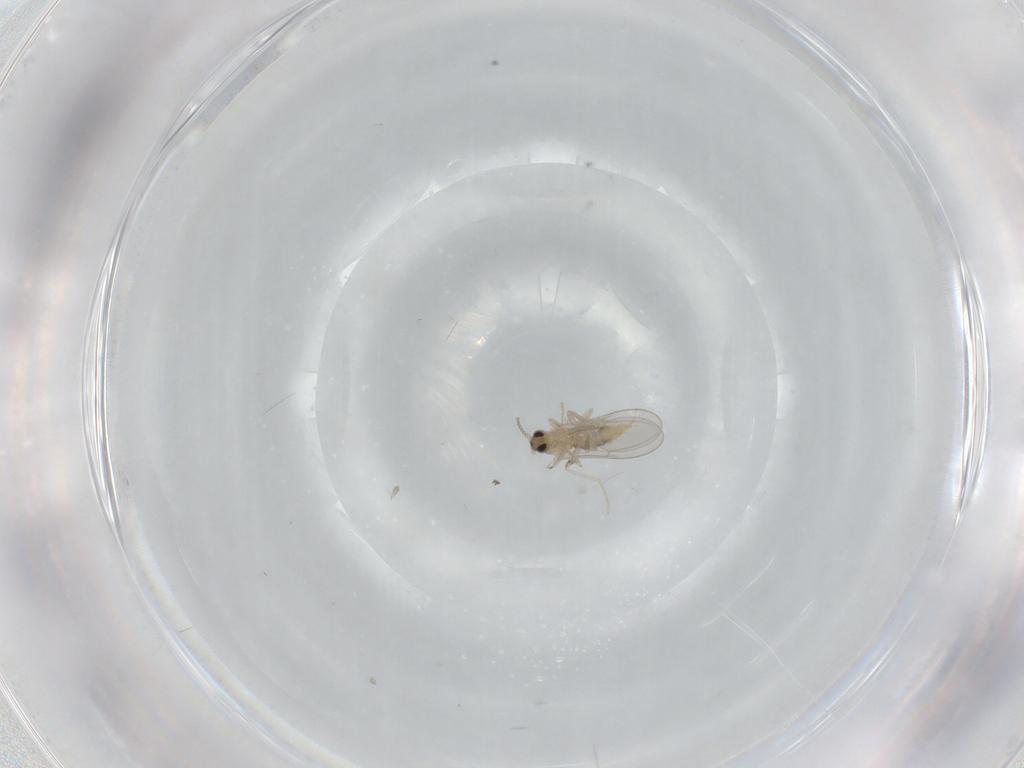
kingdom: Animalia
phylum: Arthropoda
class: Insecta
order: Diptera
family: Cecidomyiidae
